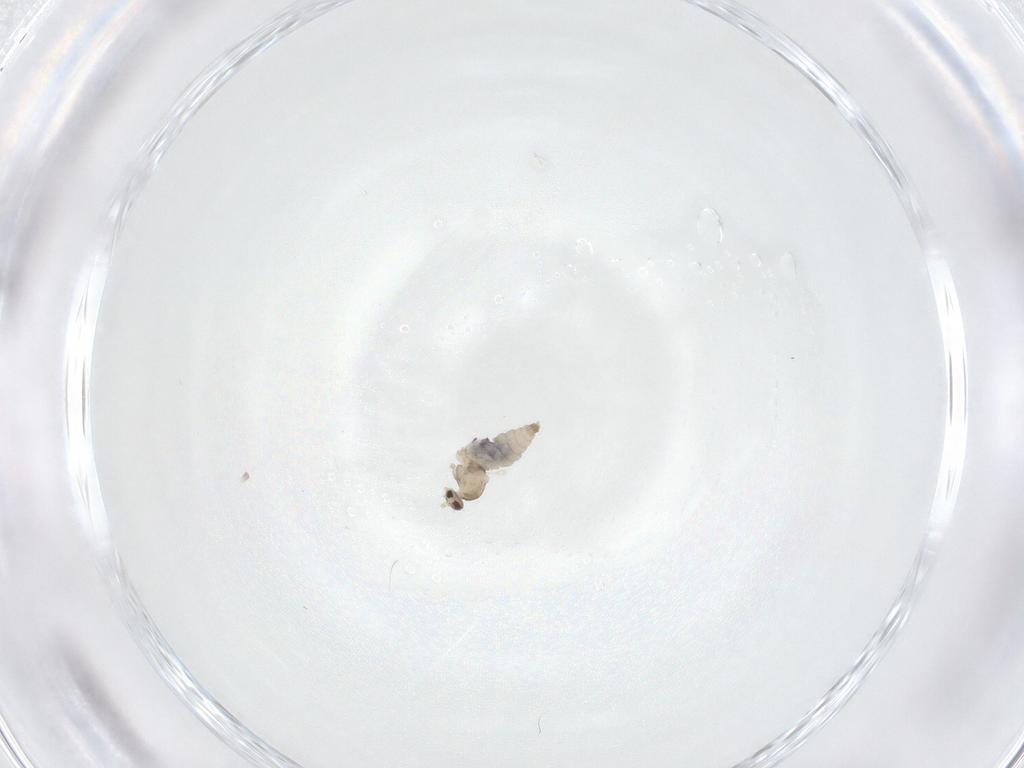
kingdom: Animalia
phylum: Arthropoda
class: Insecta
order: Diptera
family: Cecidomyiidae
